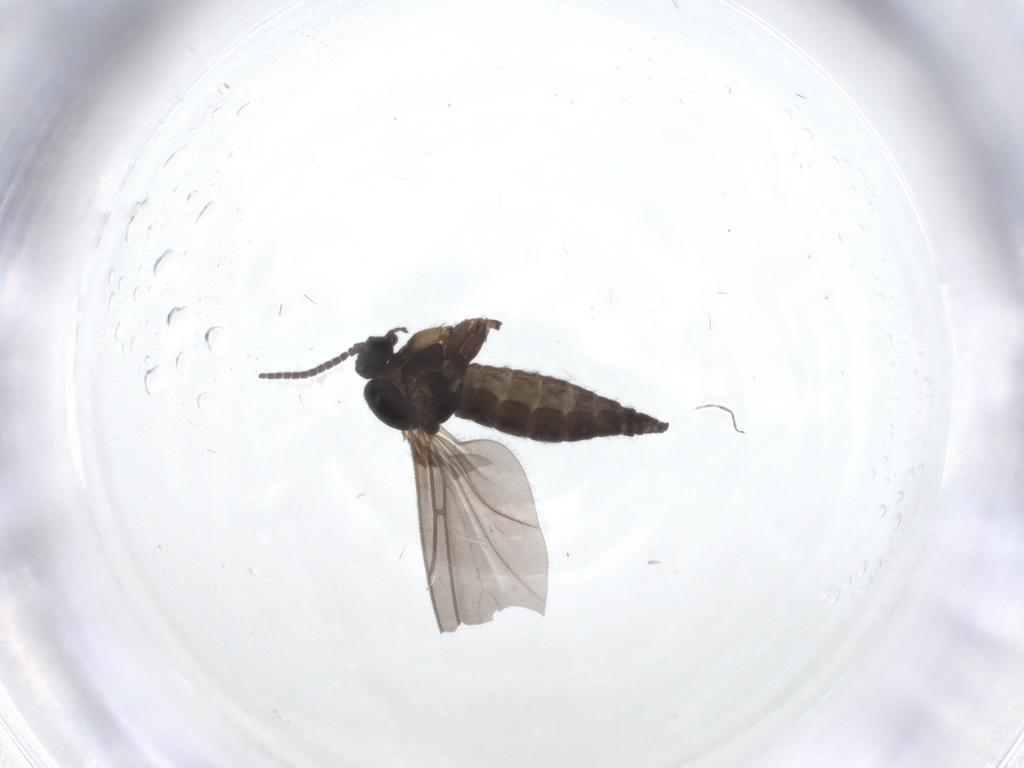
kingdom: Animalia
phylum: Arthropoda
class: Insecta
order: Diptera
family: Sciaridae
